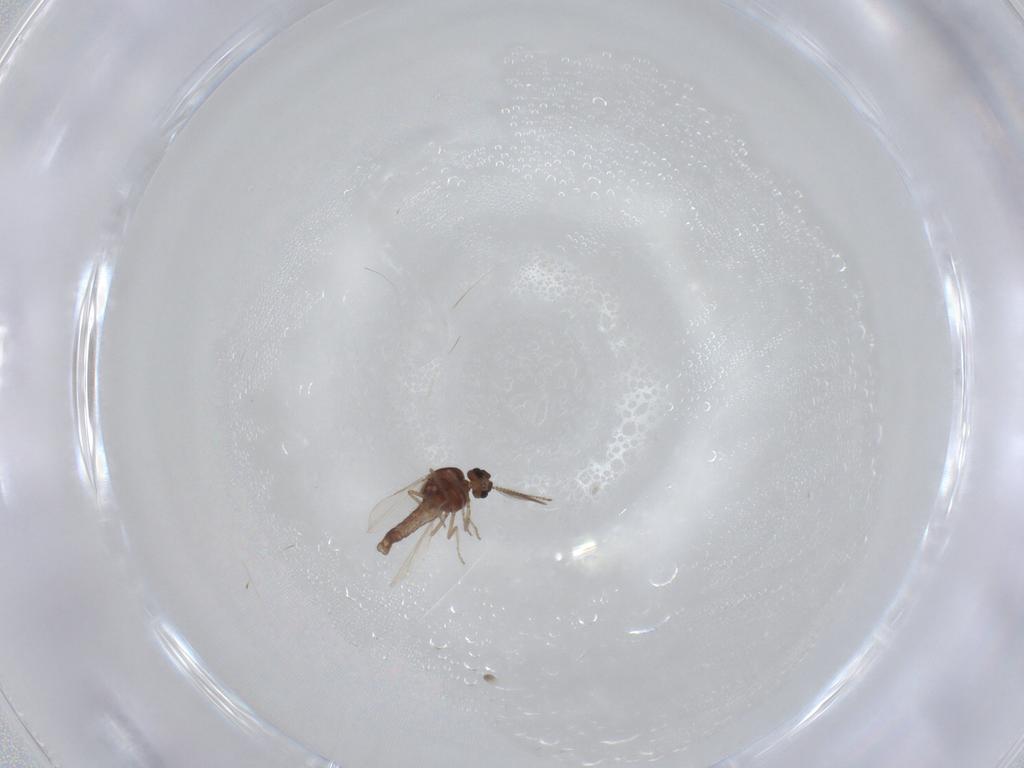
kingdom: Animalia
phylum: Arthropoda
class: Insecta
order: Diptera
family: Ceratopogonidae
